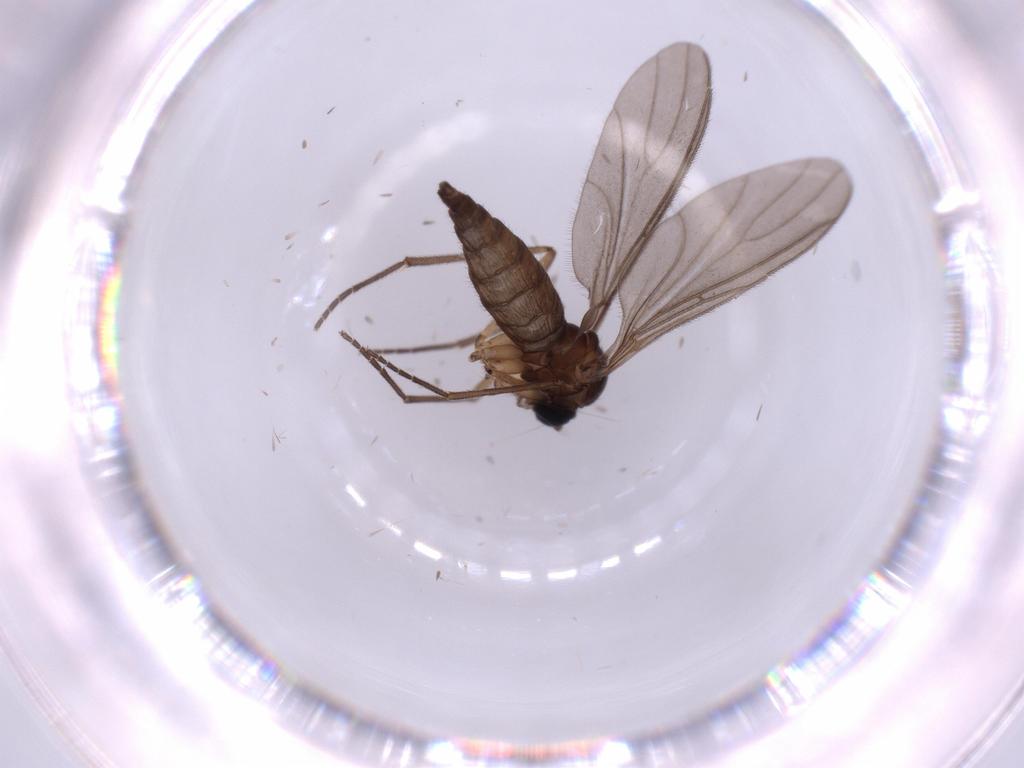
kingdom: Animalia
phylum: Arthropoda
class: Insecta
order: Diptera
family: Sciaridae
